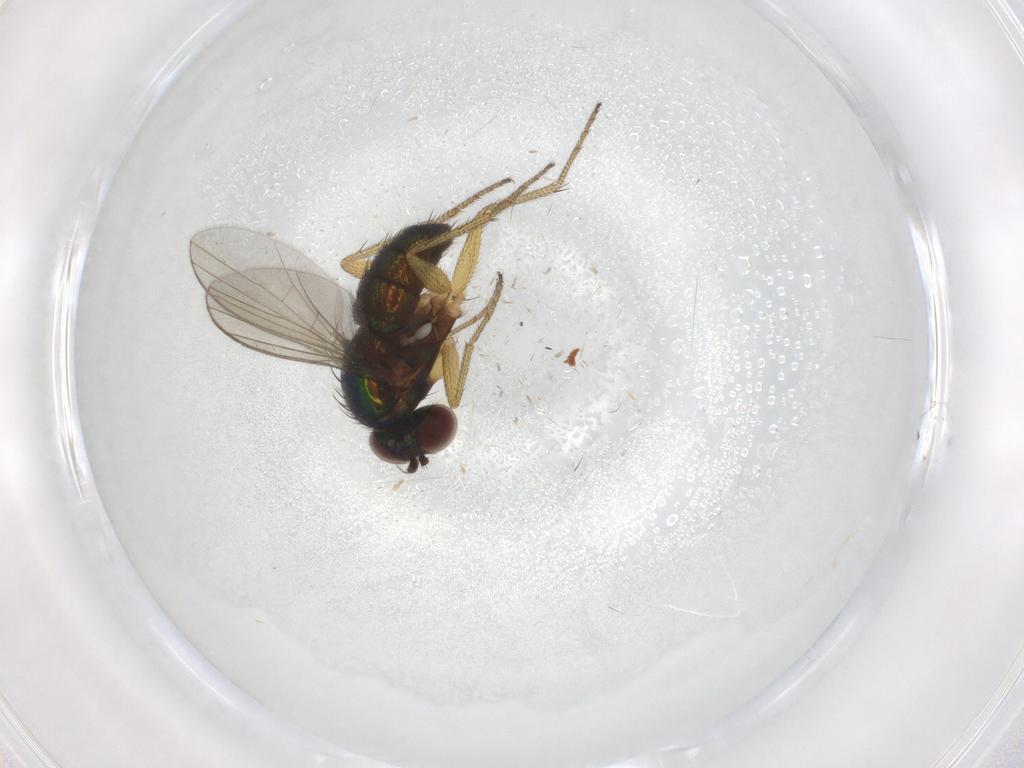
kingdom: Animalia
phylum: Arthropoda
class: Insecta
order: Diptera
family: Dolichopodidae
